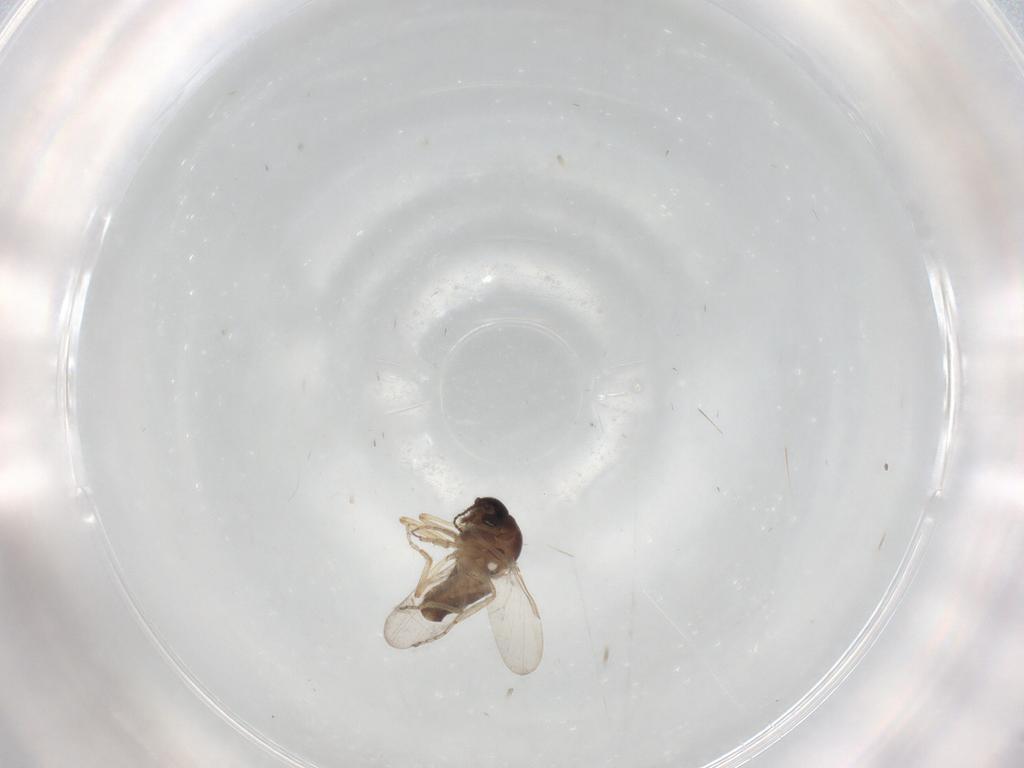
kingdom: Animalia
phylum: Arthropoda
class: Insecta
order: Diptera
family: Ceratopogonidae
